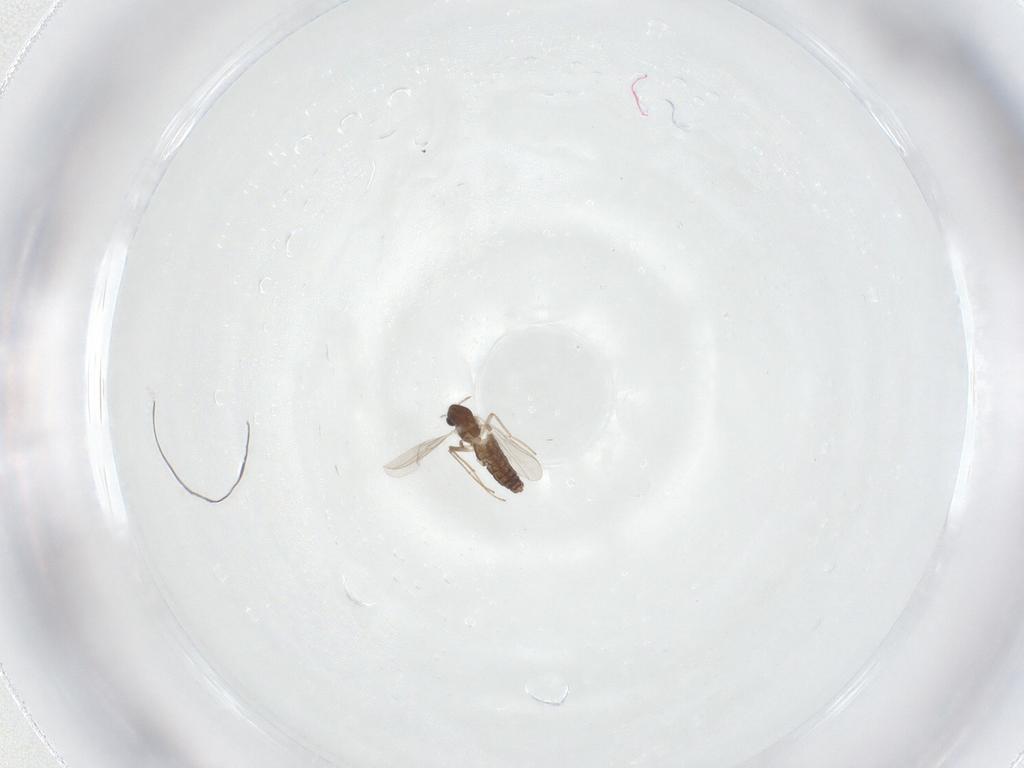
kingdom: Animalia
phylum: Arthropoda
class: Insecta
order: Diptera
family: Chironomidae
